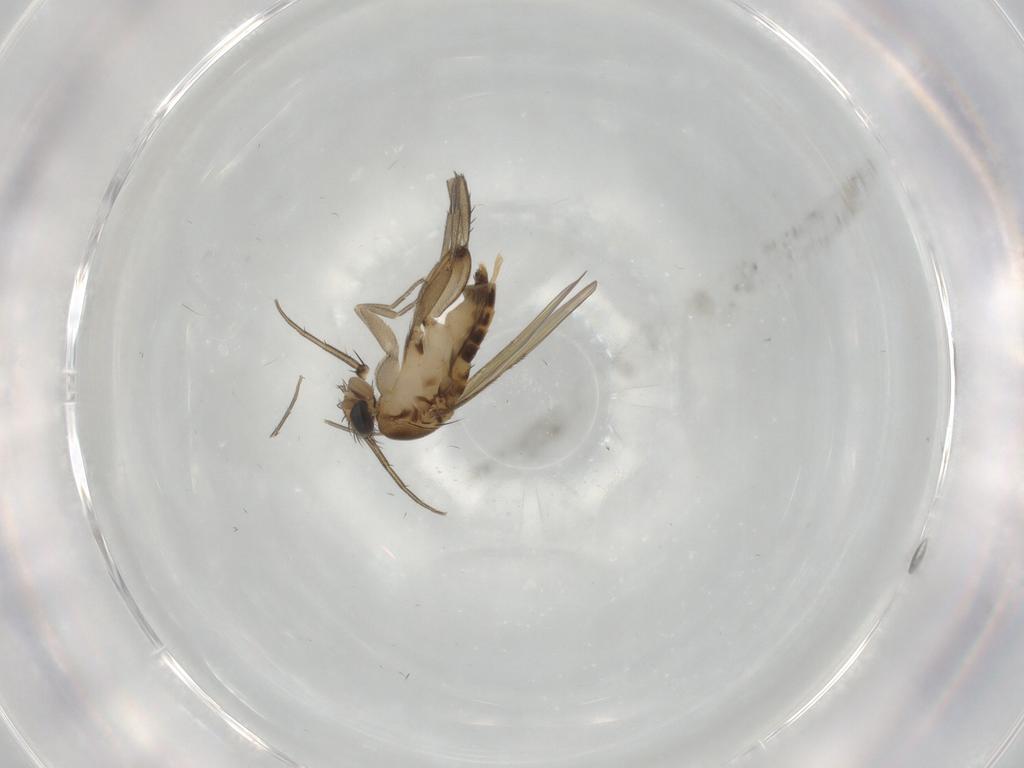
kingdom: Animalia
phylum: Arthropoda
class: Insecta
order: Diptera
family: Phoridae
